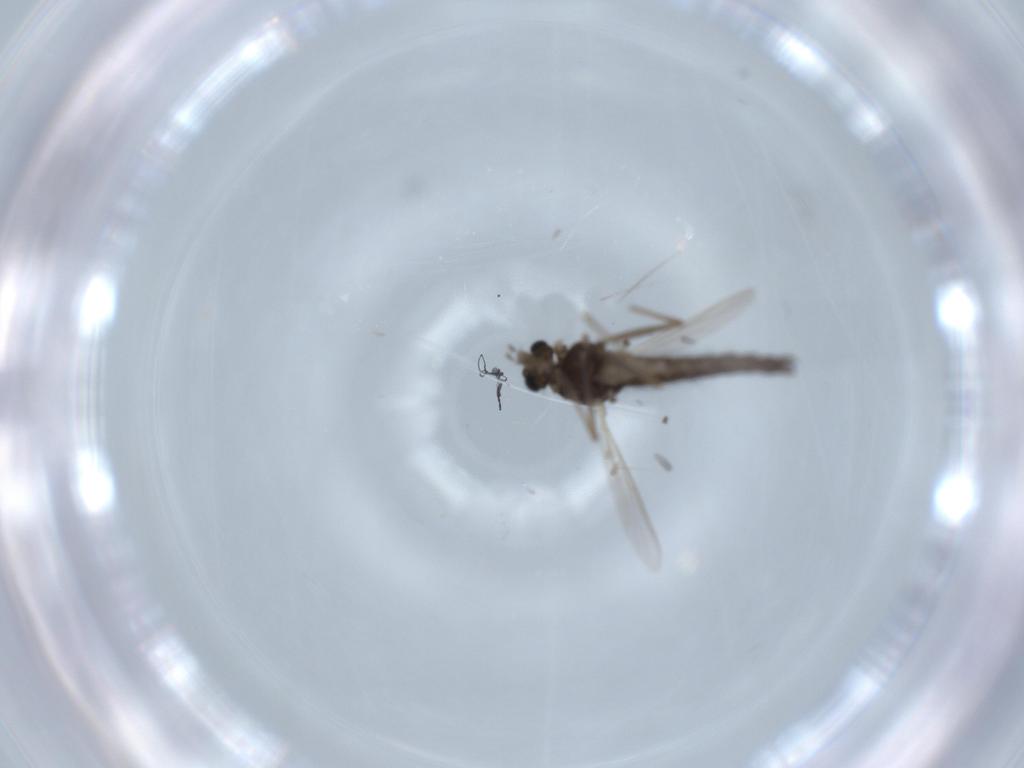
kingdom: Animalia
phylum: Arthropoda
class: Insecta
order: Diptera
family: Chironomidae
